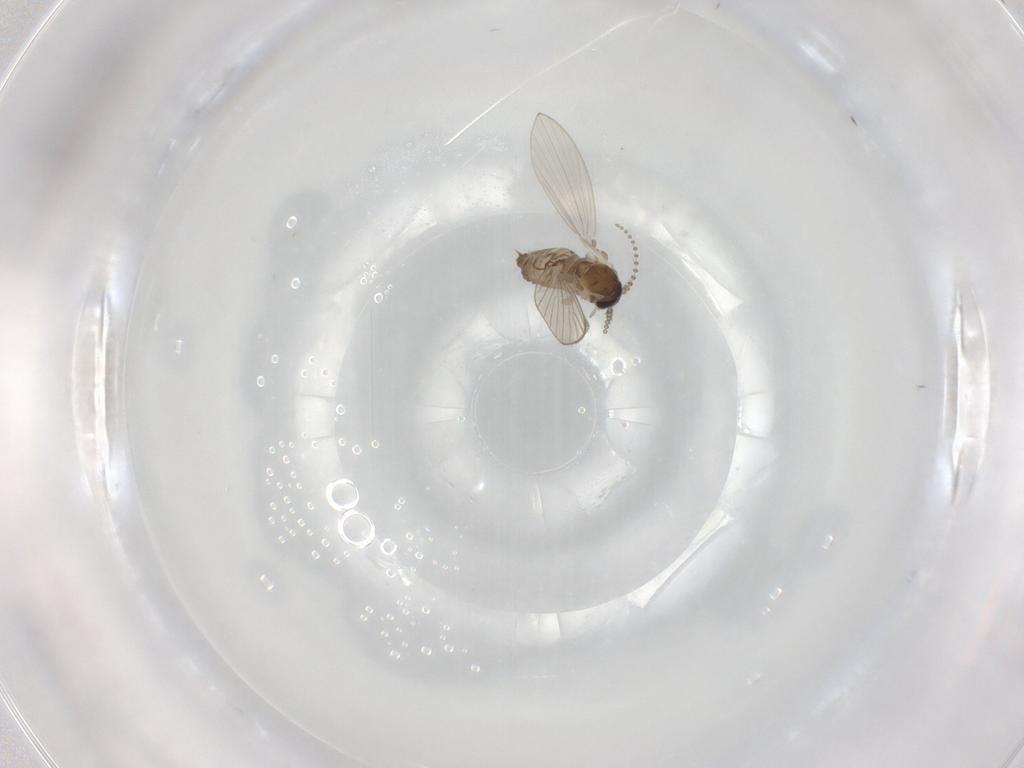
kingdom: Animalia
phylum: Arthropoda
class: Insecta
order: Diptera
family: Psychodidae
